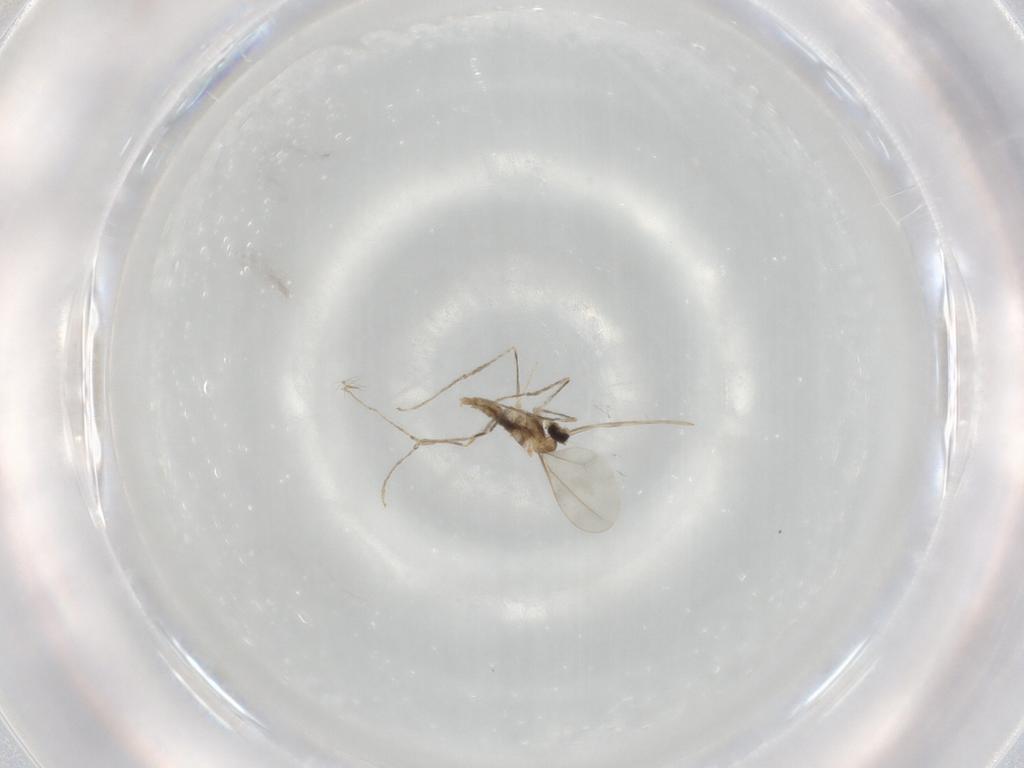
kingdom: Animalia
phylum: Arthropoda
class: Insecta
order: Diptera
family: Cecidomyiidae
